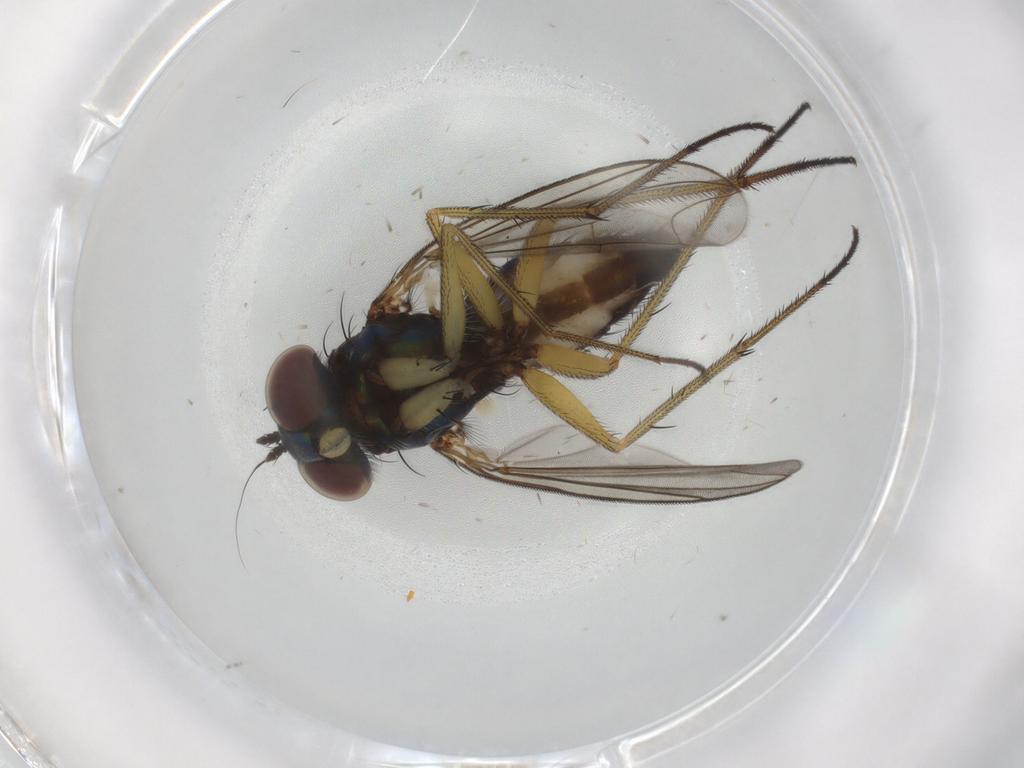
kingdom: Animalia
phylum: Arthropoda
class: Insecta
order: Diptera
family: Dolichopodidae
